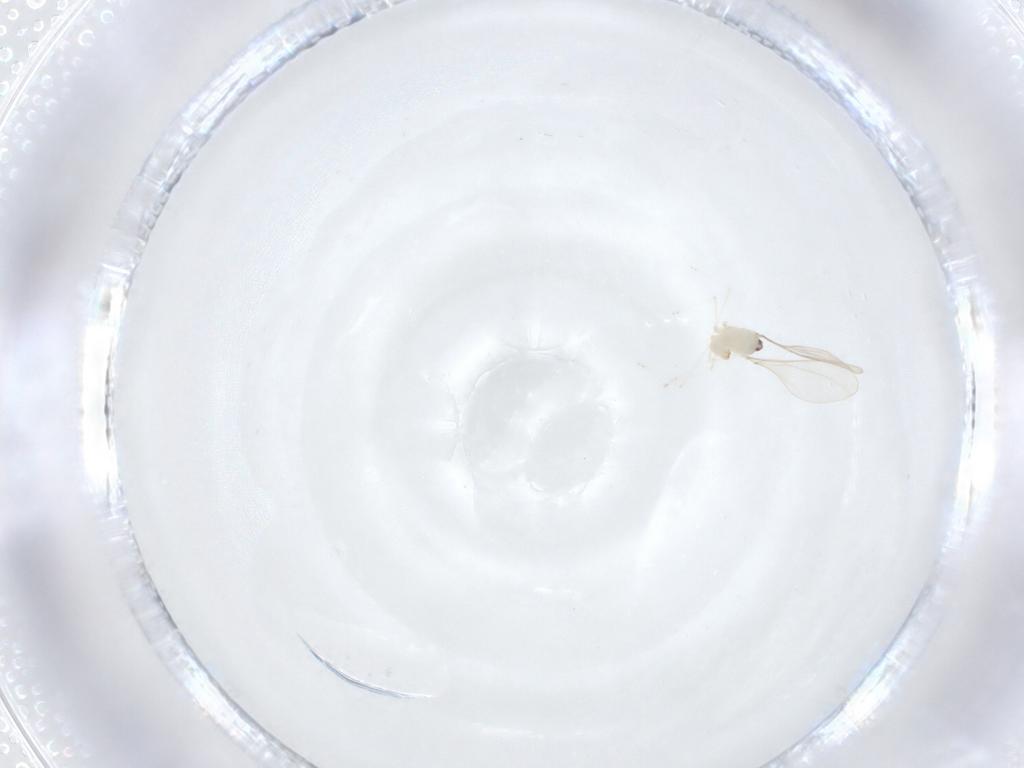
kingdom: Animalia
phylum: Arthropoda
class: Insecta
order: Diptera
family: Cecidomyiidae
